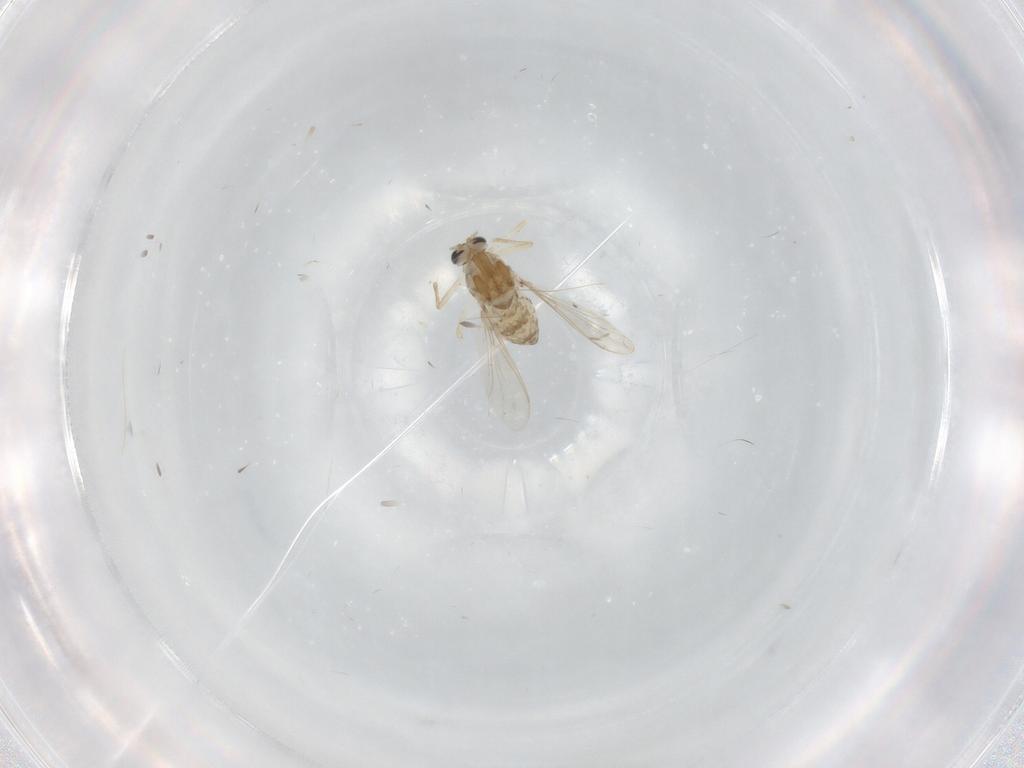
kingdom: Animalia
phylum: Arthropoda
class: Insecta
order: Diptera
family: Chironomidae
